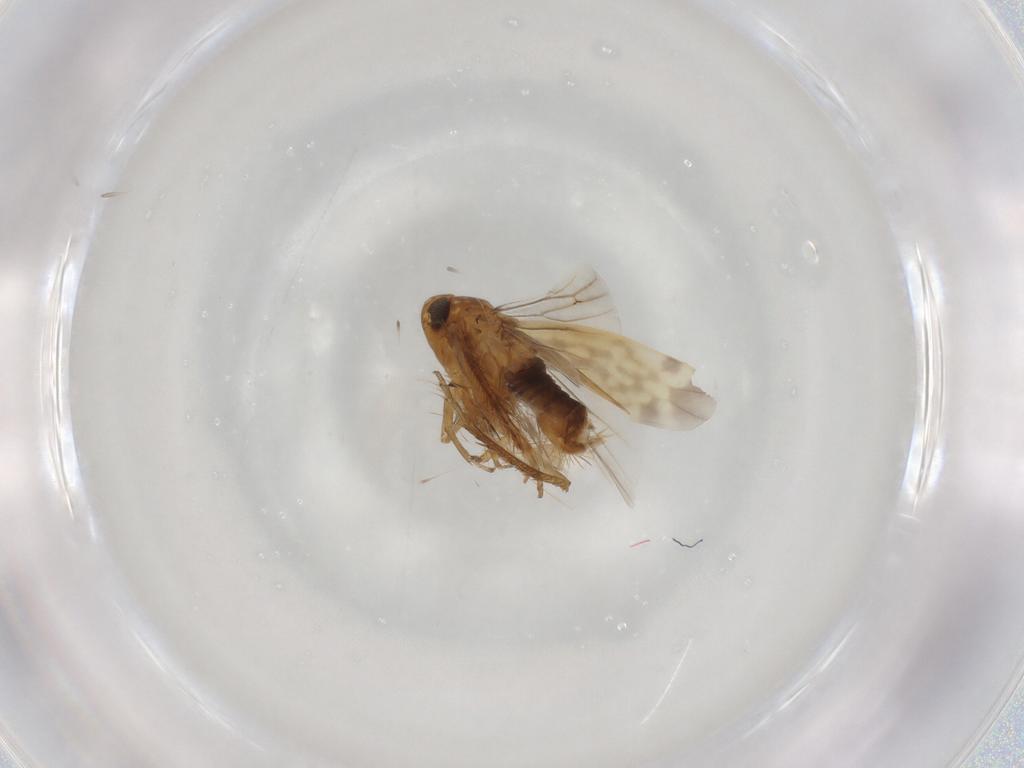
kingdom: Animalia
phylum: Arthropoda
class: Insecta
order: Hemiptera
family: Cicadellidae
